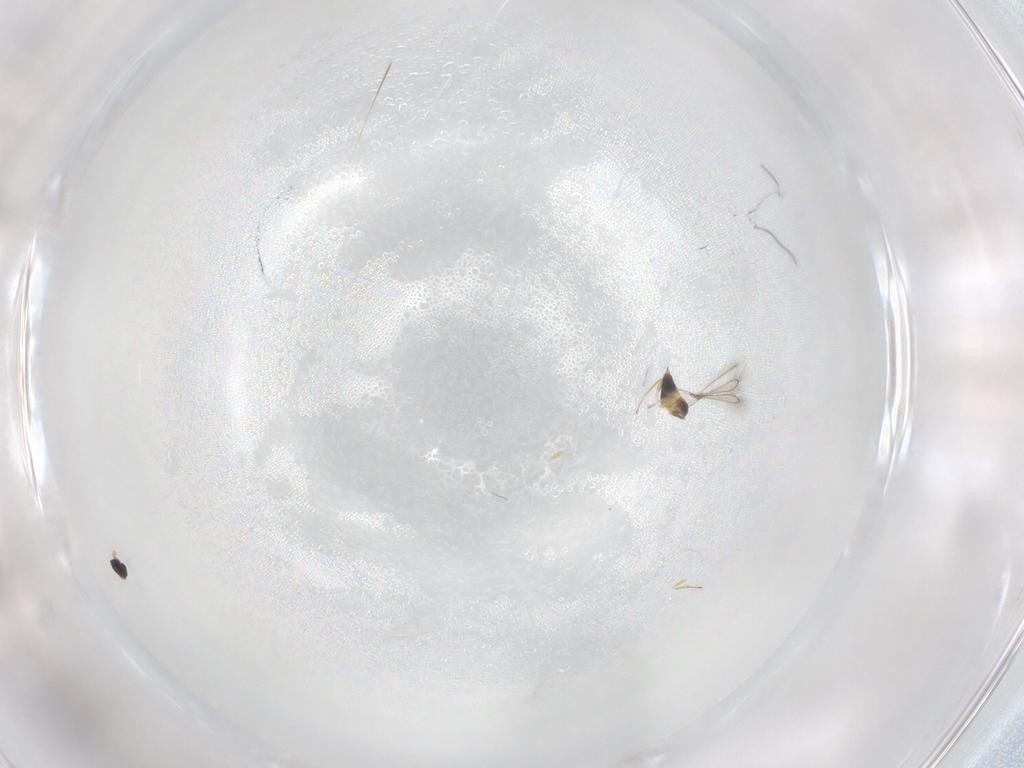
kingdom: Animalia
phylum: Arthropoda
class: Insecta
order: Hymenoptera
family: Mymaridae
